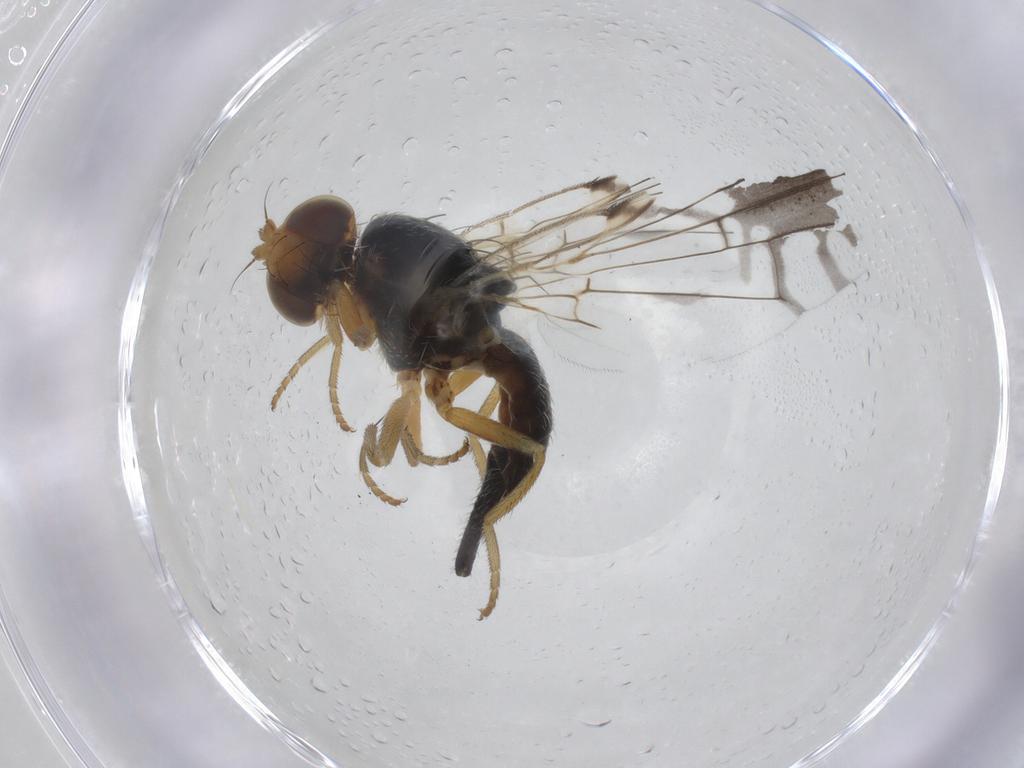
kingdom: Animalia
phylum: Arthropoda
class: Insecta
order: Diptera
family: Tephritidae
